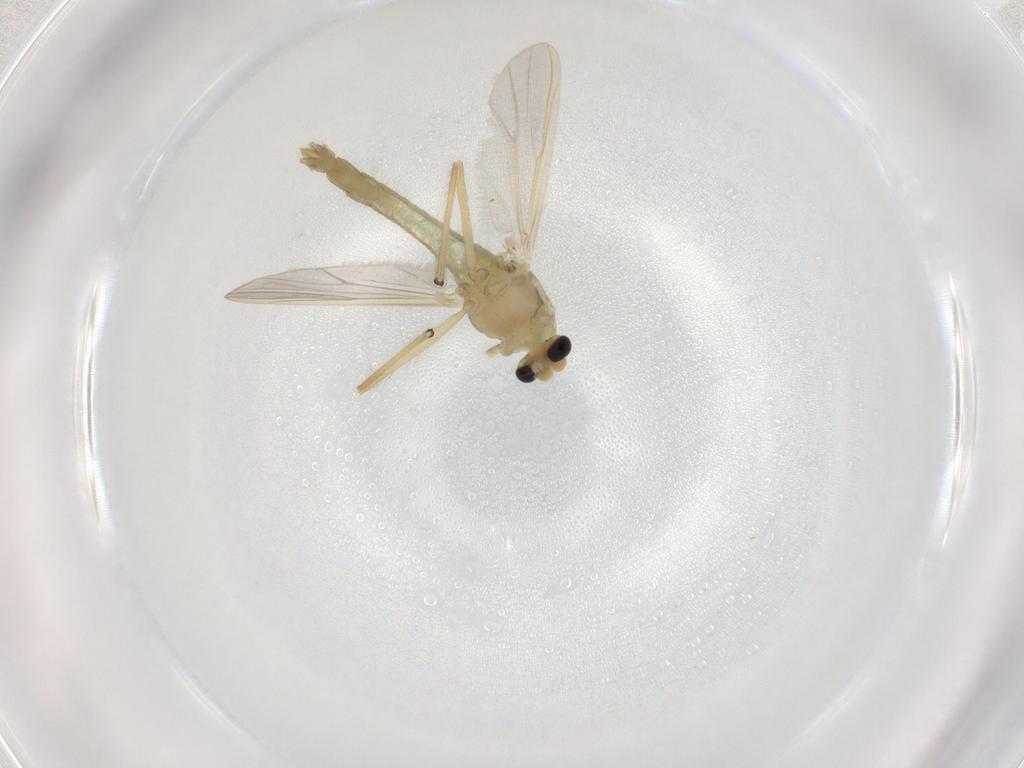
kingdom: Animalia
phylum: Arthropoda
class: Insecta
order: Diptera
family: Chironomidae
